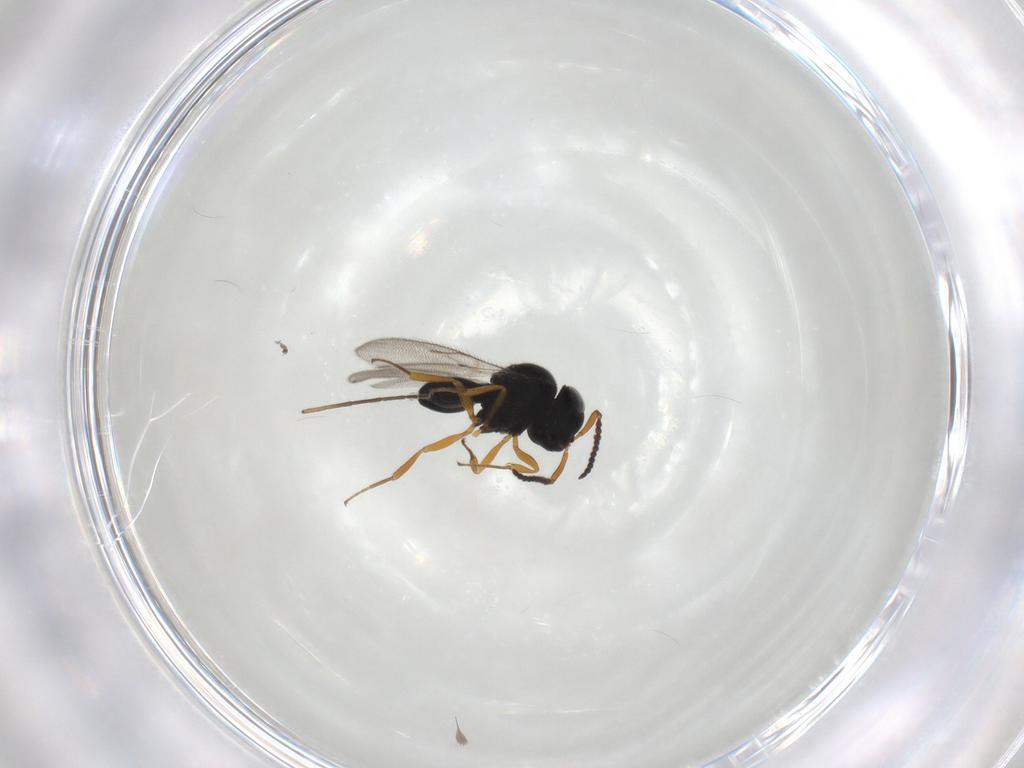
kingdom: Animalia
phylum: Arthropoda
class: Insecta
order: Hymenoptera
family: Scelionidae
